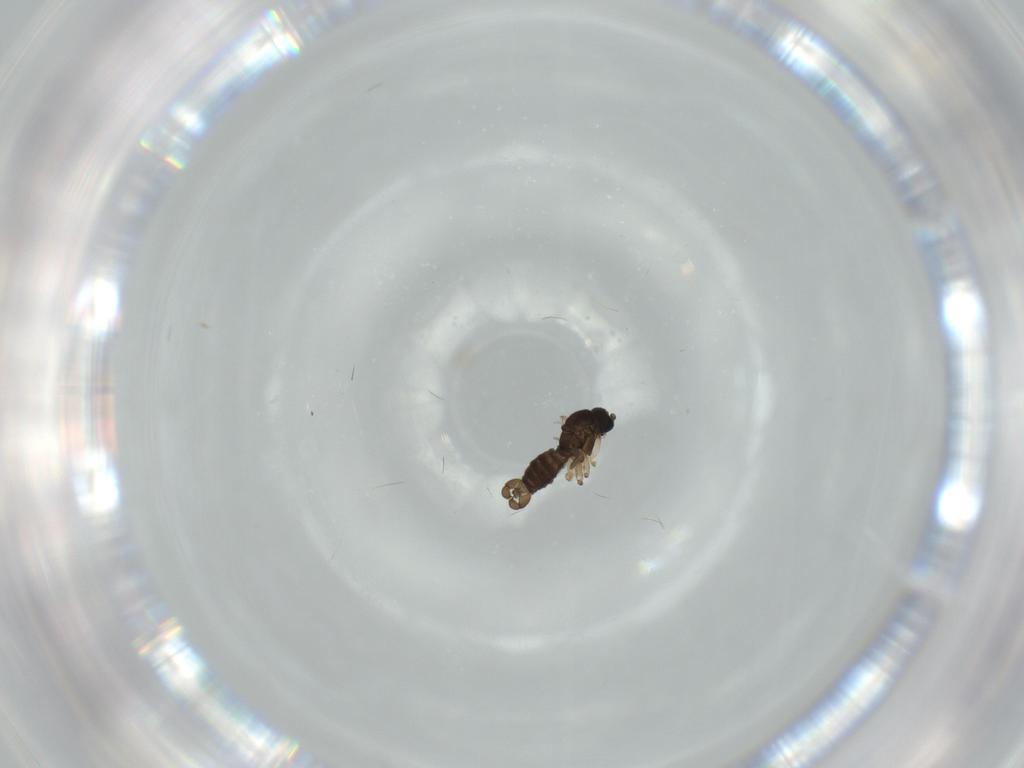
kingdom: Animalia
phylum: Arthropoda
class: Insecta
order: Diptera
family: Sciaridae
